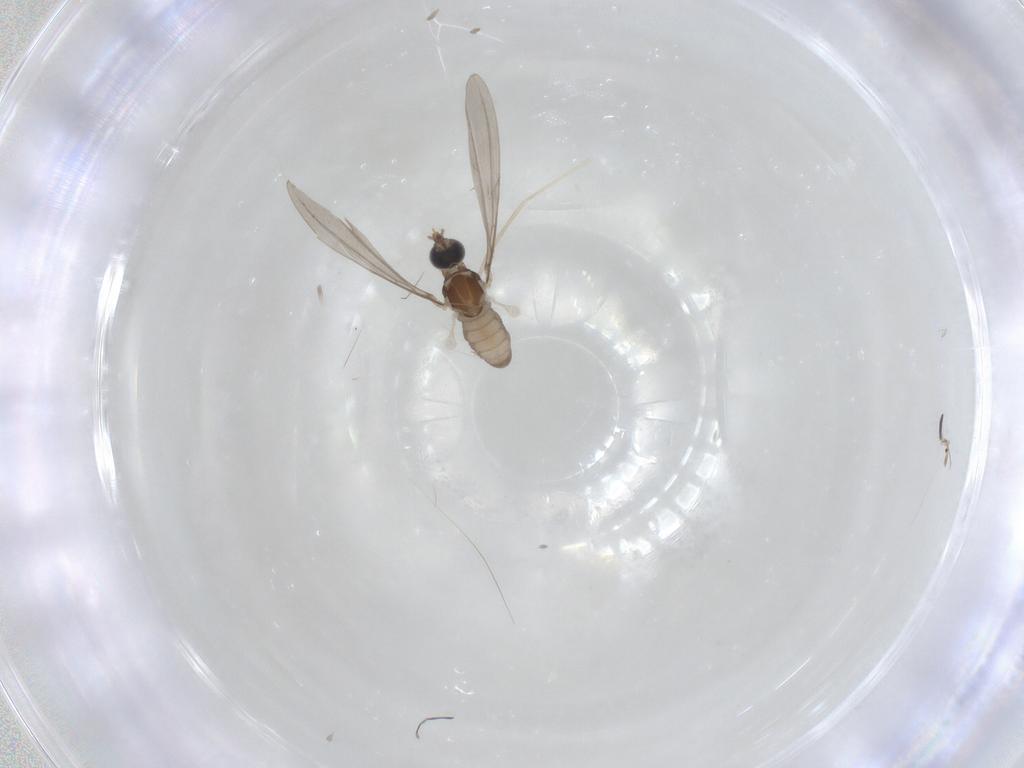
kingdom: Animalia
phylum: Arthropoda
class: Insecta
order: Diptera
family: Cecidomyiidae
